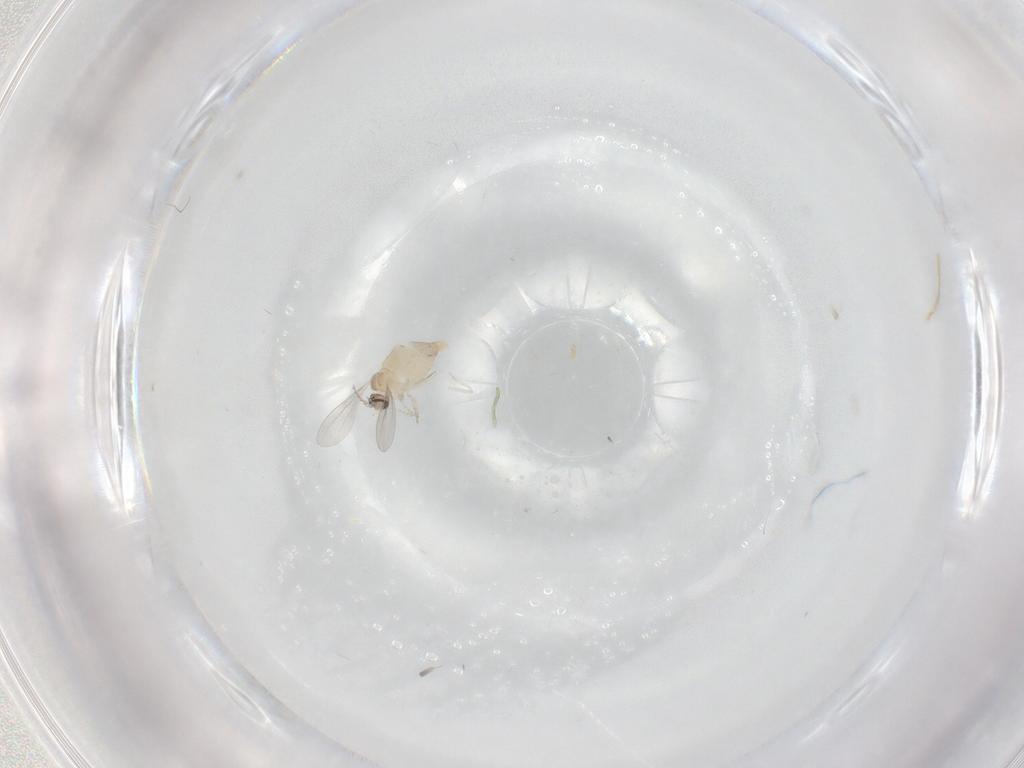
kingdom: Animalia
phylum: Arthropoda
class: Insecta
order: Diptera
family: Cecidomyiidae
